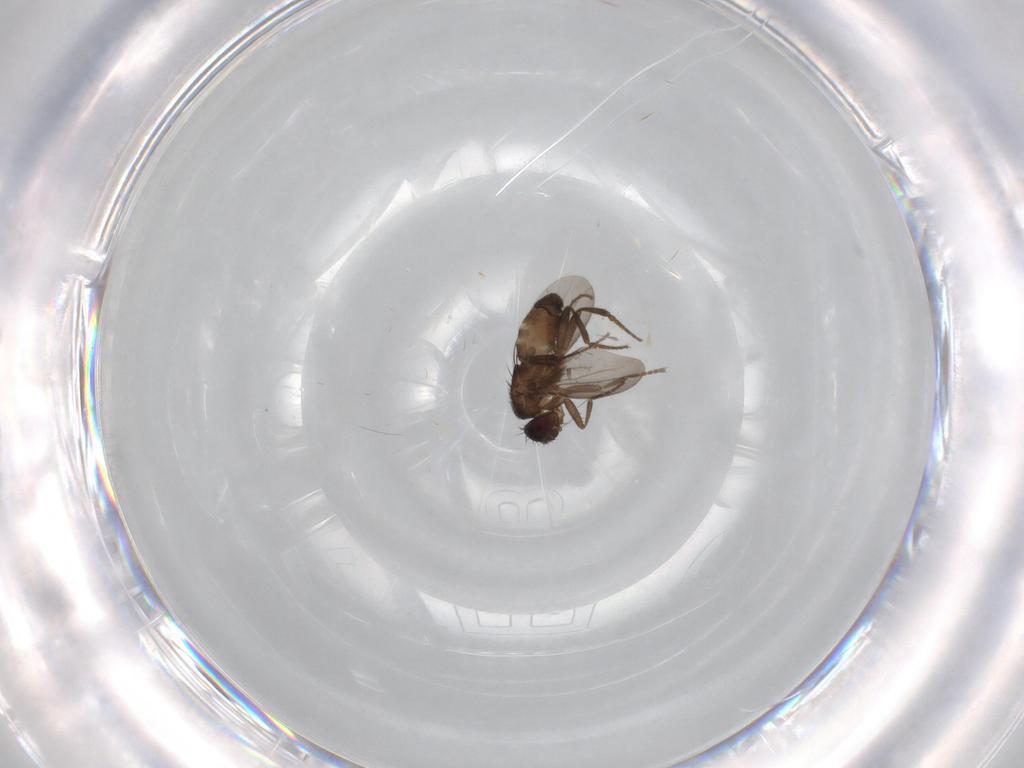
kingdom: Animalia
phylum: Arthropoda
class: Insecta
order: Diptera
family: Sphaeroceridae
